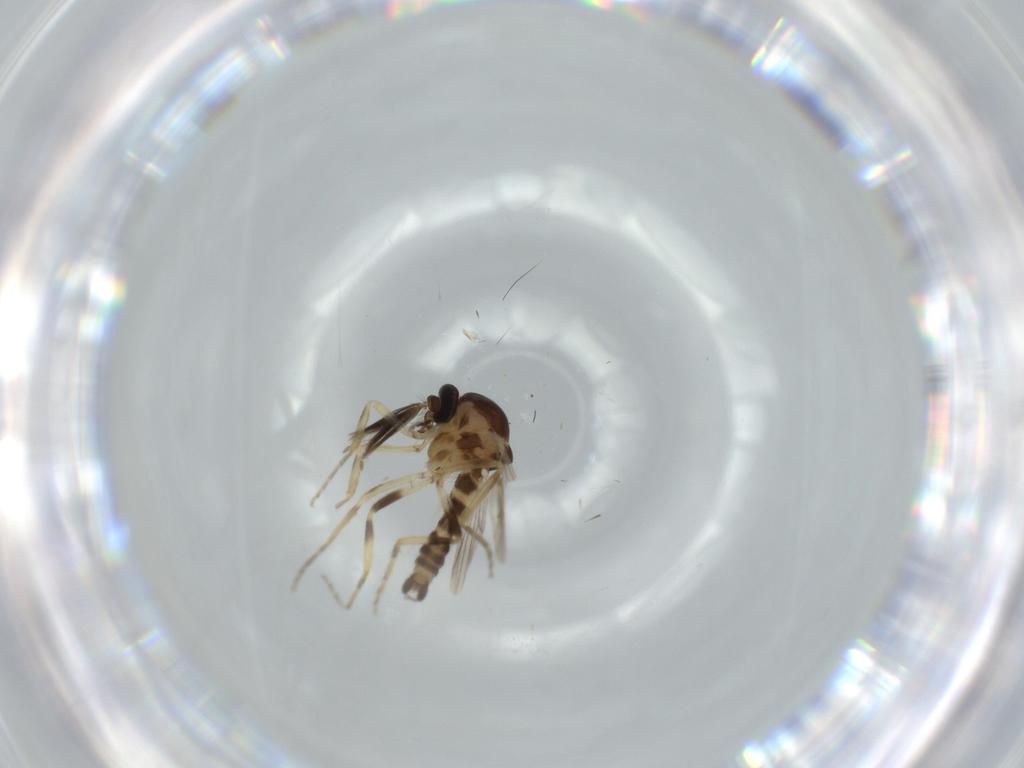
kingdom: Animalia
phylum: Arthropoda
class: Insecta
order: Diptera
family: Ceratopogonidae
